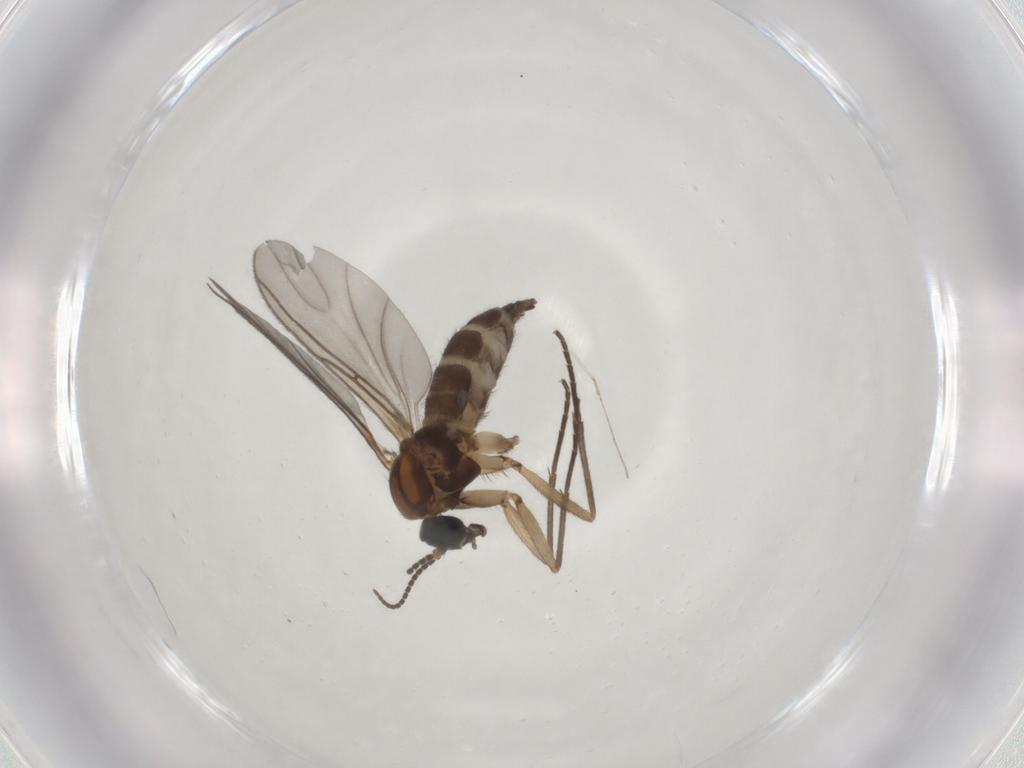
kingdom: Animalia
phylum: Arthropoda
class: Insecta
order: Diptera
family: Sciaridae
